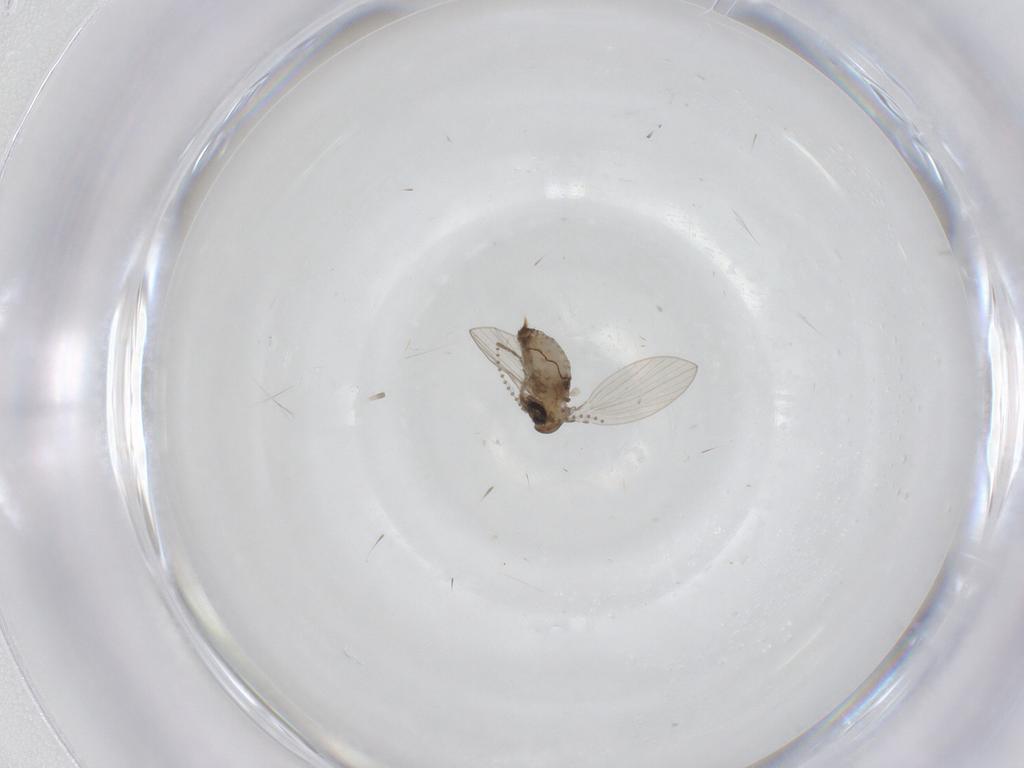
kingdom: Animalia
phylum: Arthropoda
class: Insecta
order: Diptera
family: Psychodidae
